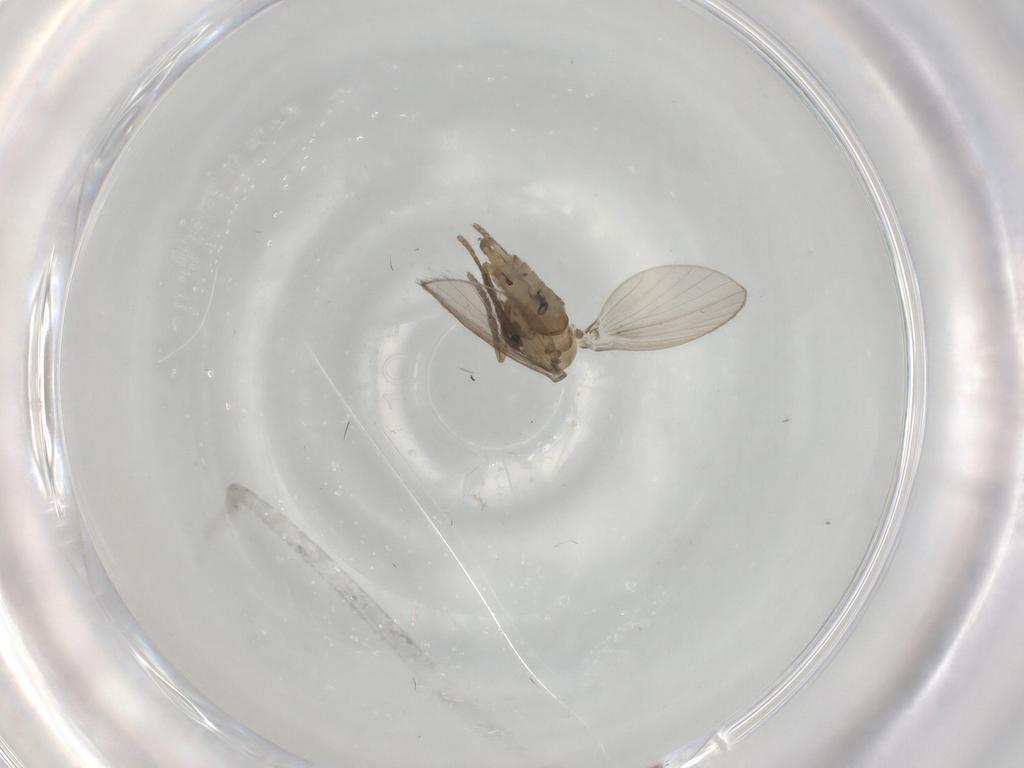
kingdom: Animalia
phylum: Arthropoda
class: Insecta
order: Diptera
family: Psychodidae
